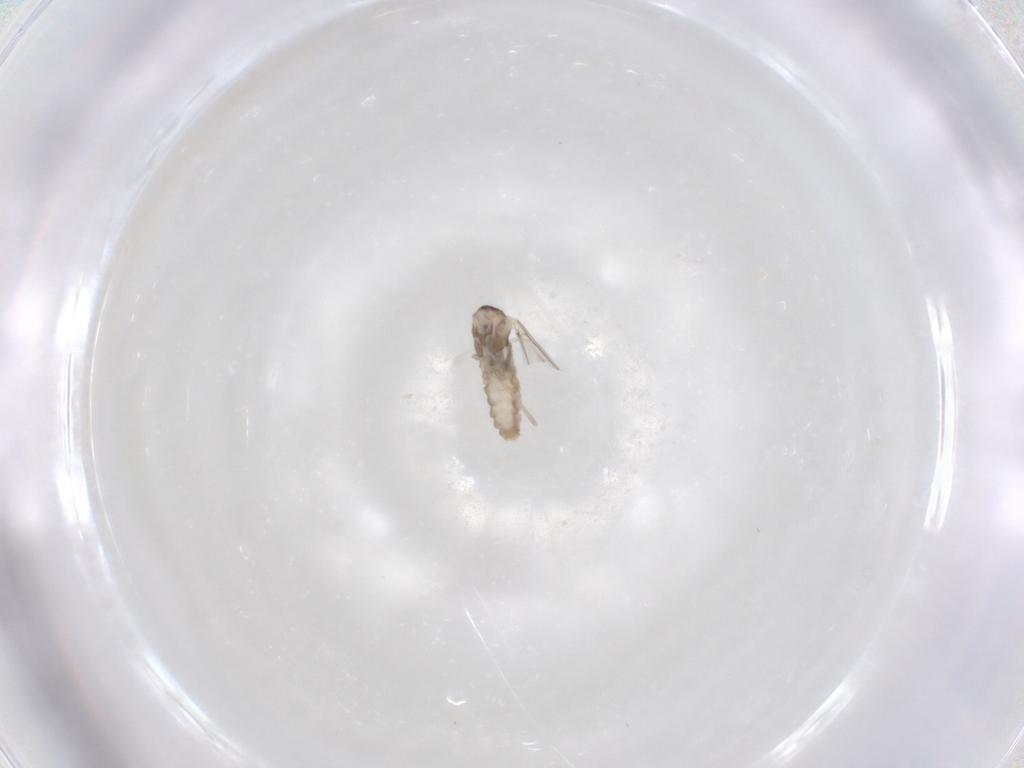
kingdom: Animalia
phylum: Arthropoda
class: Insecta
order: Diptera
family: Cecidomyiidae
